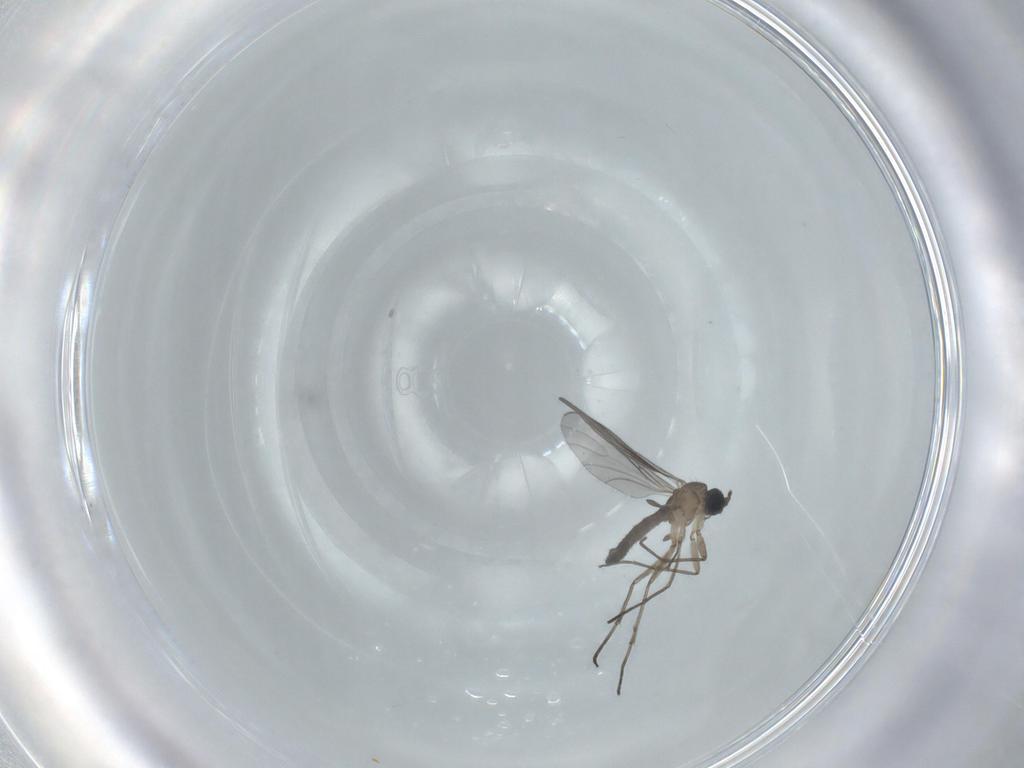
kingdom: Animalia
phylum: Arthropoda
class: Insecta
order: Diptera
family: Sciaridae
